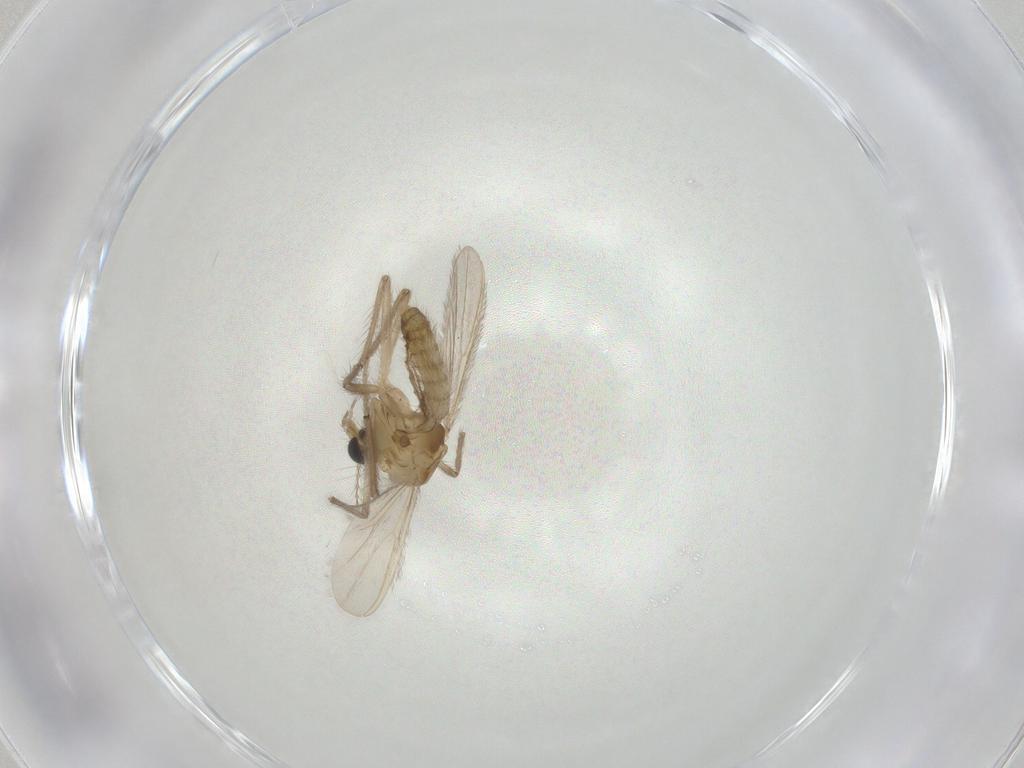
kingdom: Animalia
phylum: Arthropoda
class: Insecta
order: Diptera
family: Chironomidae
